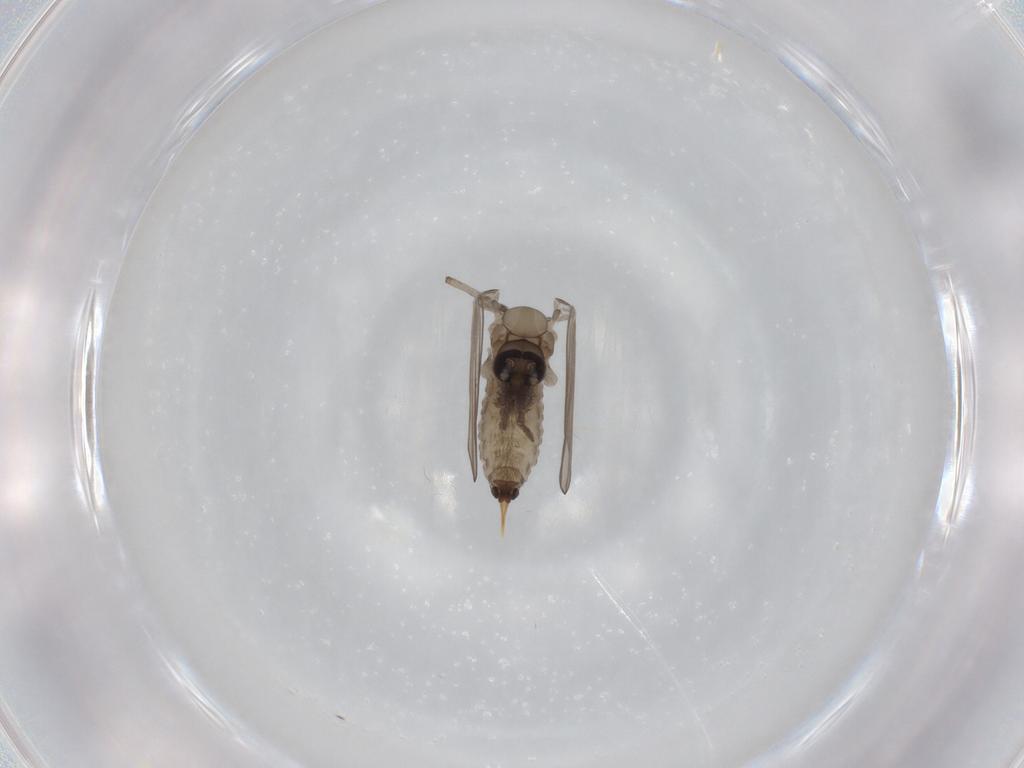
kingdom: Animalia
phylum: Arthropoda
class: Insecta
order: Diptera
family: Psychodidae
